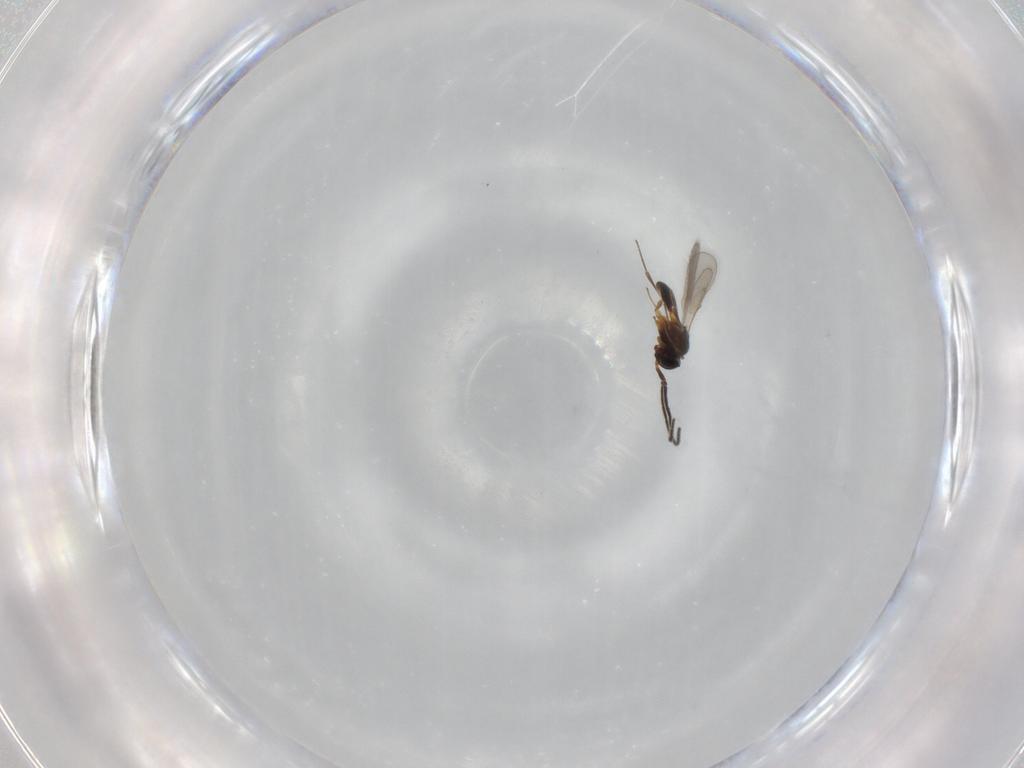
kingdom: Animalia
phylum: Arthropoda
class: Insecta
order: Hymenoptera
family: Scelionidae
